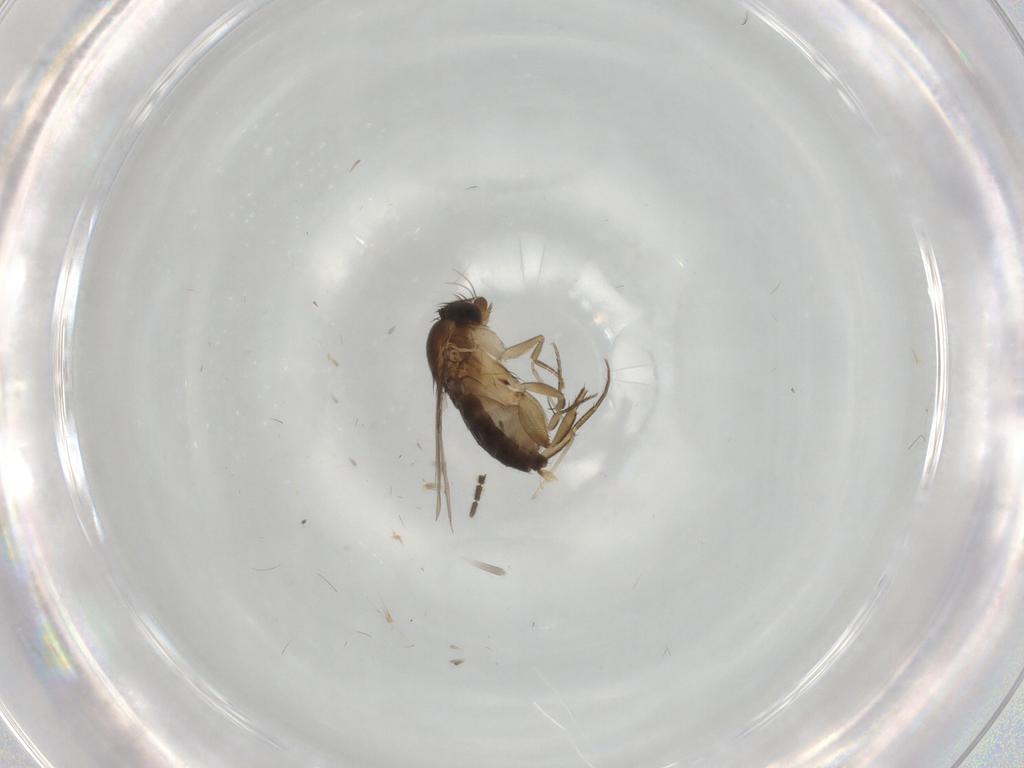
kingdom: Animalia
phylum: Arthropoda
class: Insecta
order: Diptera
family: Phoridae
